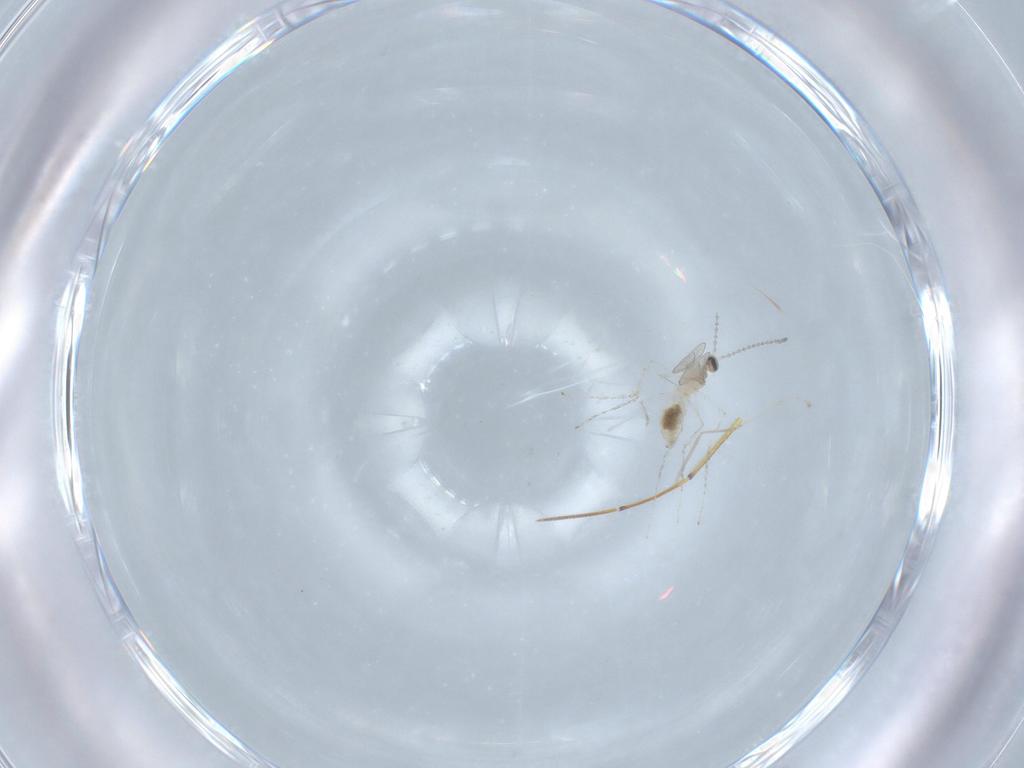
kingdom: Animalia
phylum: Arthropoda
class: Insecta
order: Diptera
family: Cecidomyiidae
